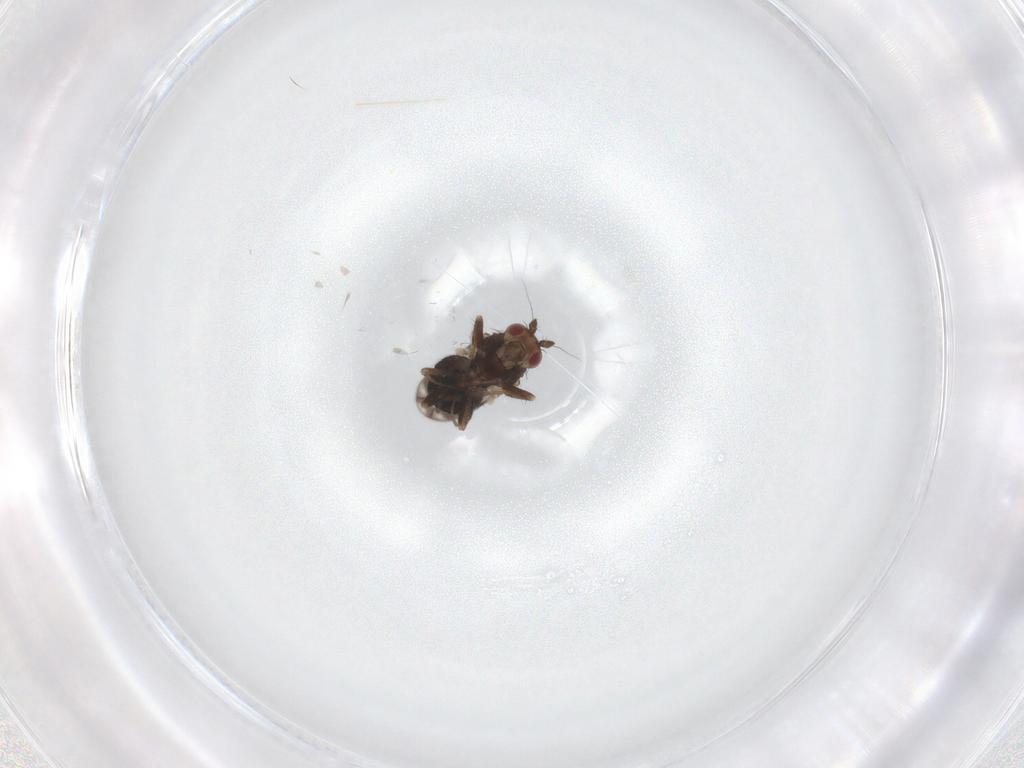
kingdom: Animalia
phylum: Arthropoda
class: Insecta
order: Diptera
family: Sphaeroceridae
